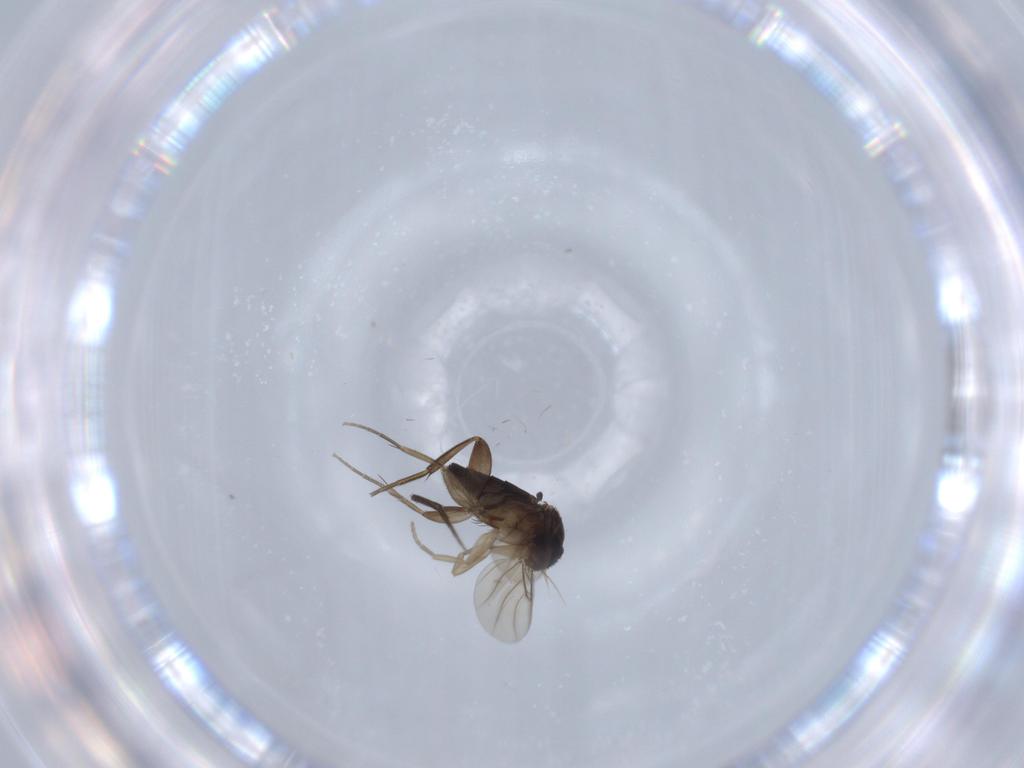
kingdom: Animalia
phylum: Arthropoda
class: Insecta
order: Diptera
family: Phoridae
